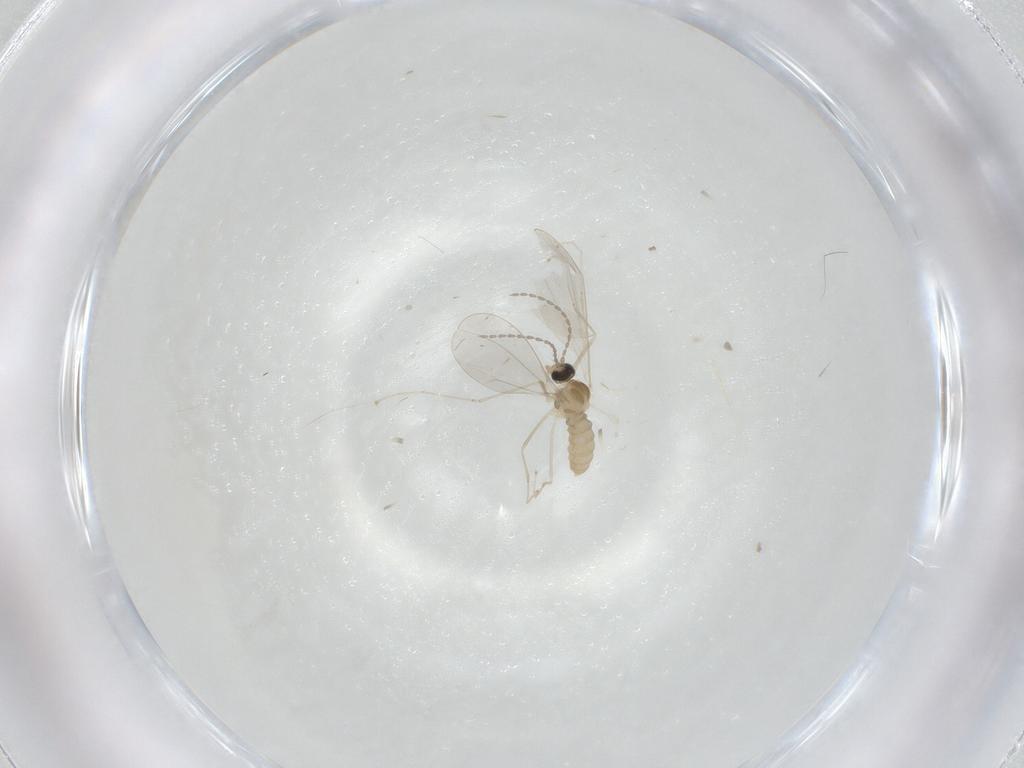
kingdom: Animalia
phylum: Arthropoda
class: Insecta
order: Diptera
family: Cecidomyiidae
